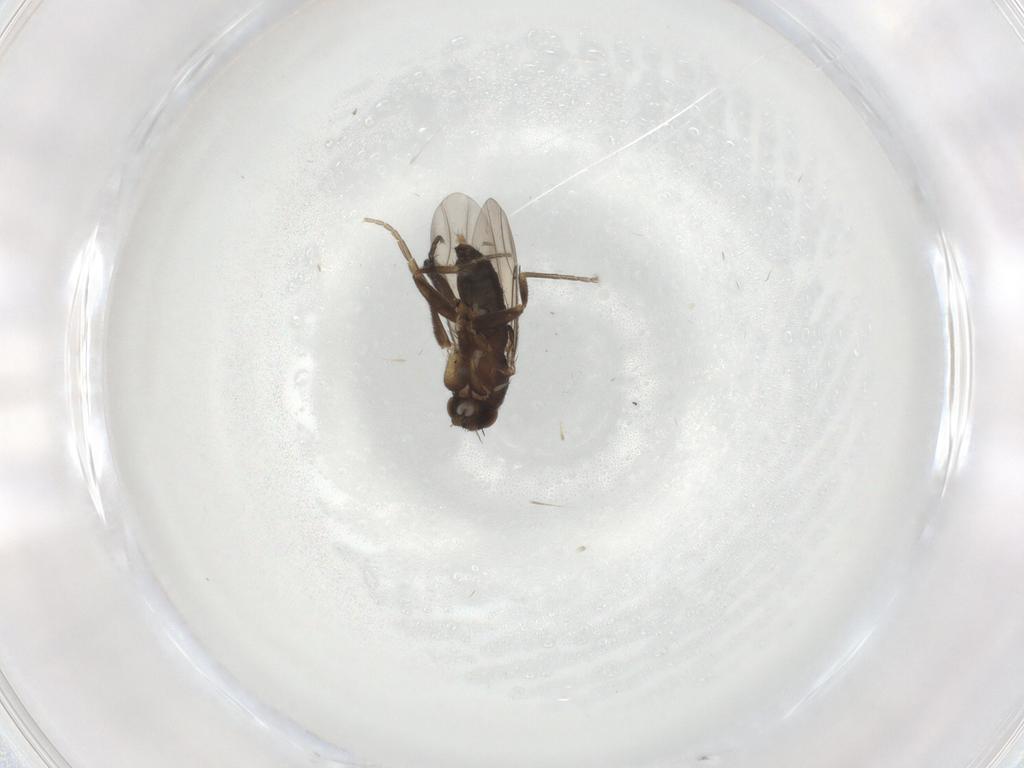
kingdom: Animalia
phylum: Arthropoda
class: Insecta
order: Diptera
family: Phoridae
